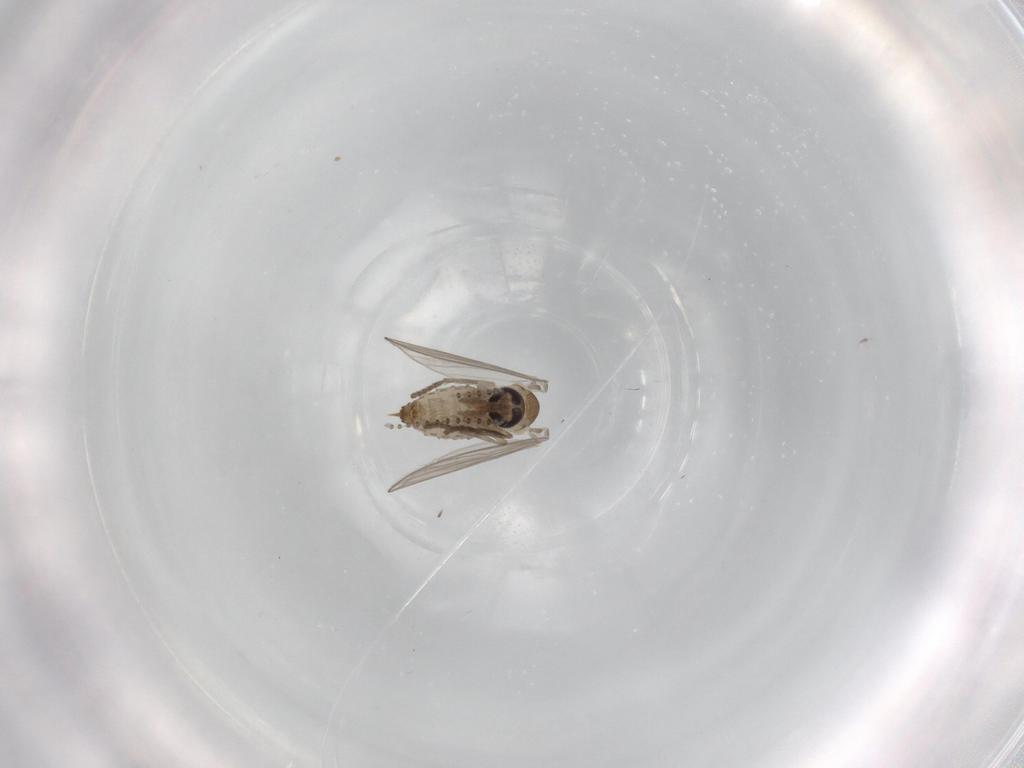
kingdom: Animalia
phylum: Arthropoda
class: Insecta
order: Diptera
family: Psychodidae
